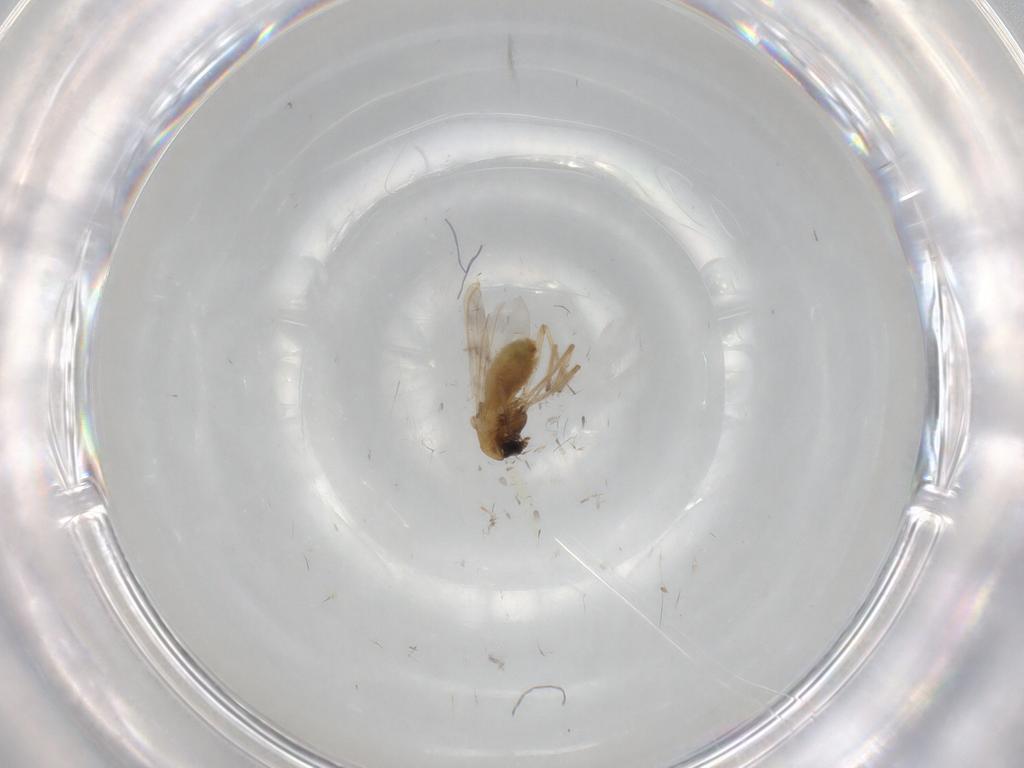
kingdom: Animalia
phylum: Arthropoda
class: Insecta
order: Diptera
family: Chironomidae
